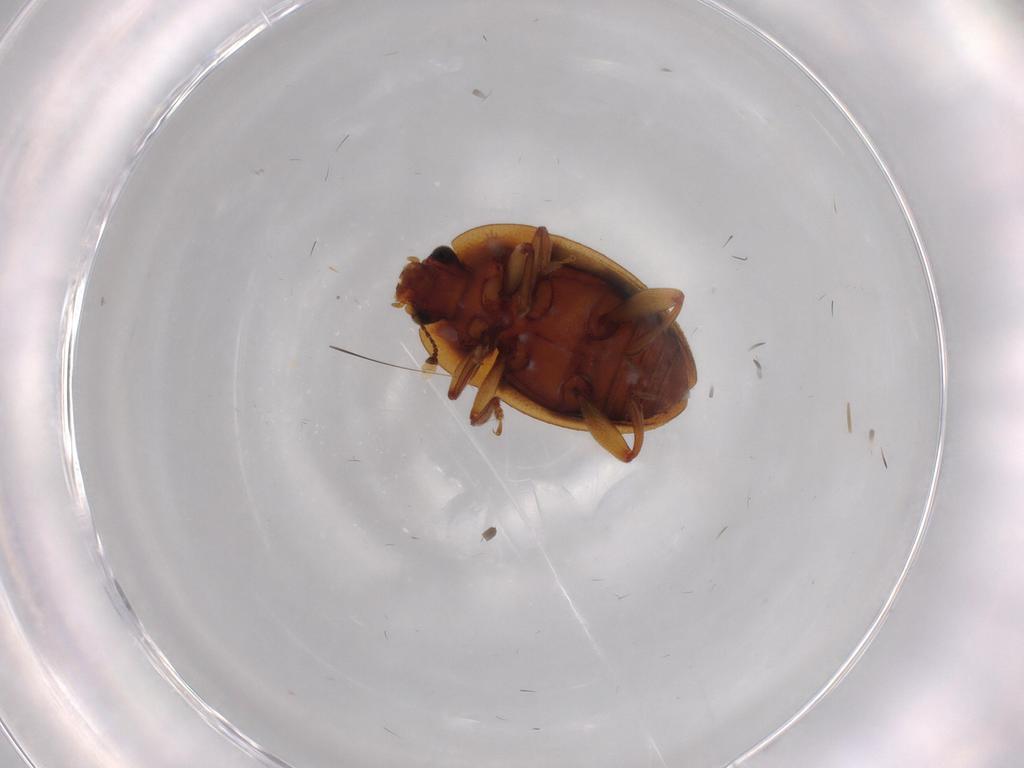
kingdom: Animalia
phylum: Arthropoda
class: Insecta
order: Coleoptera
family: Nitidulidae
